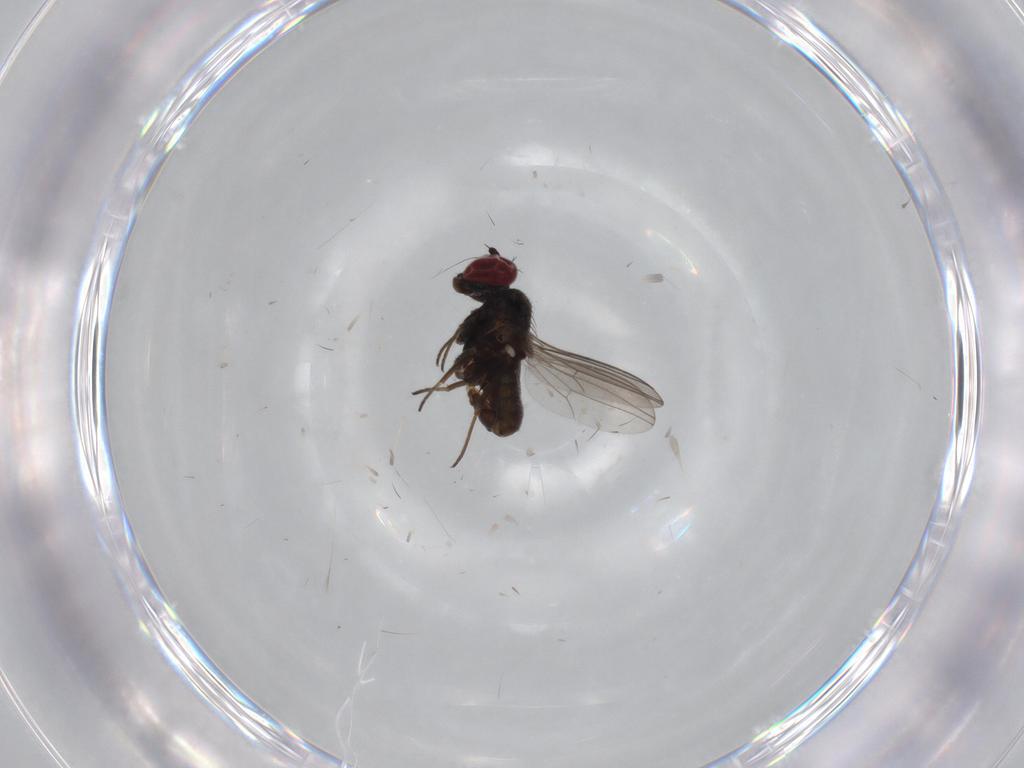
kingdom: Animalia
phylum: Arthropoda
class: Insecta
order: Diptera
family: Dolichopodidae
